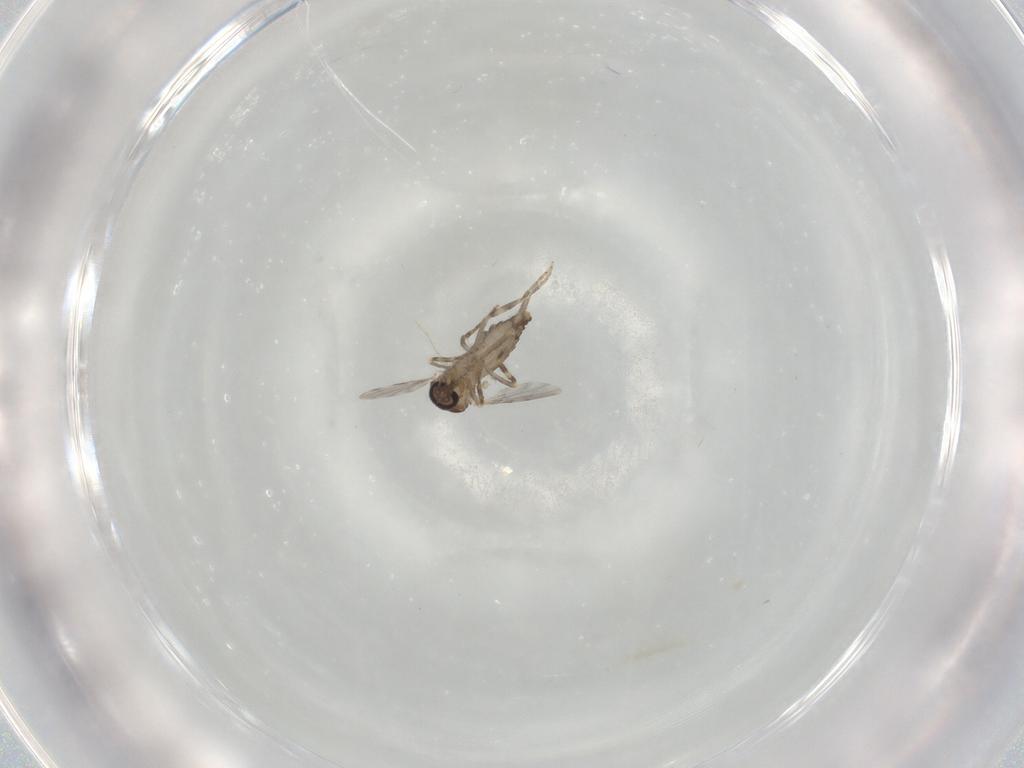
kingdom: Animalia
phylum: Arthropoda
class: Insecta
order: Diptera
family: Ceratopogonidae
